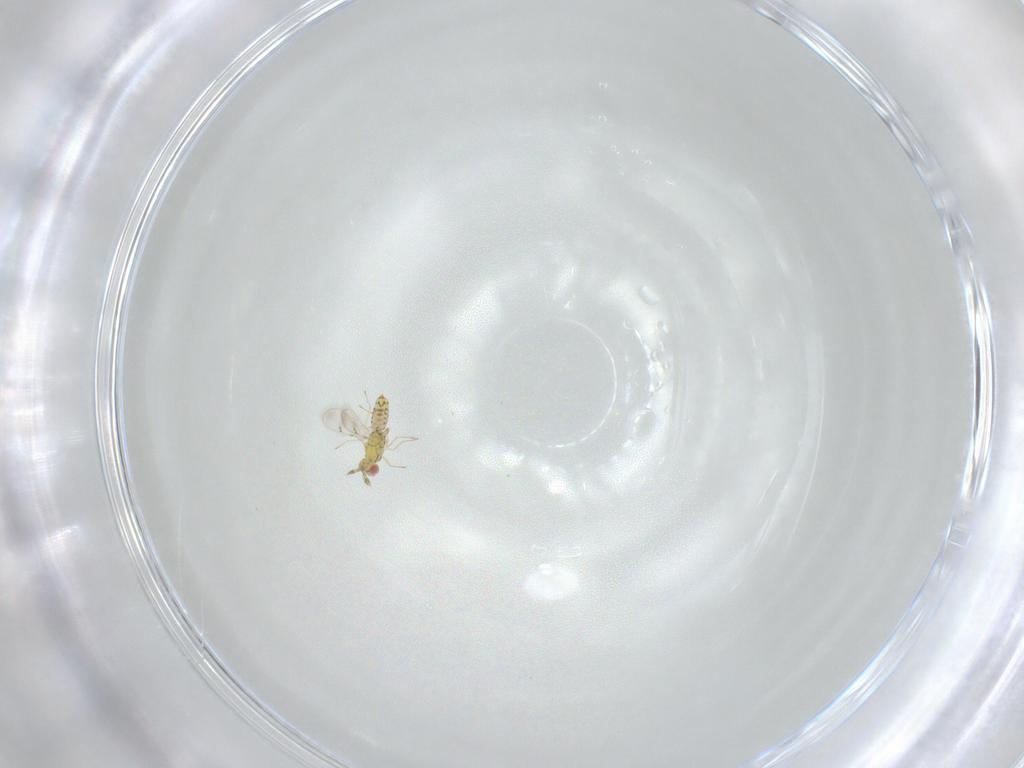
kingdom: Animalia
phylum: Arthropoda
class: Insecta
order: Hymenoptera
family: Eulophidae
